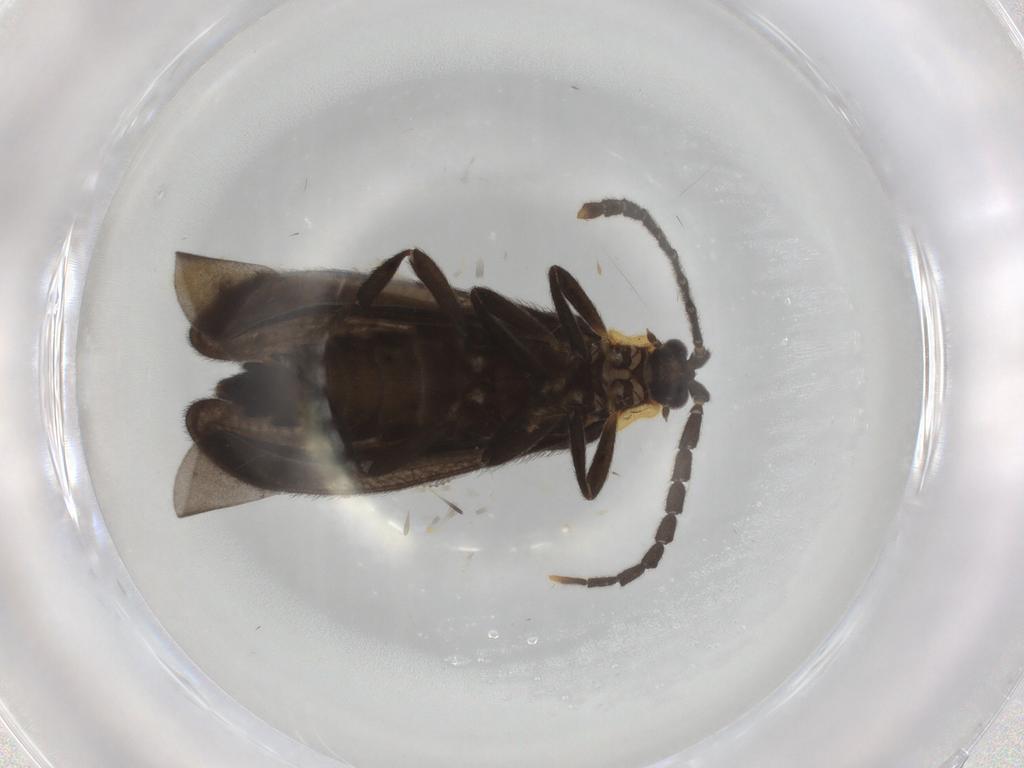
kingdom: Animalia
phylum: Arthropoda
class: Insecta
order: Coleoptera
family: Lycidae
